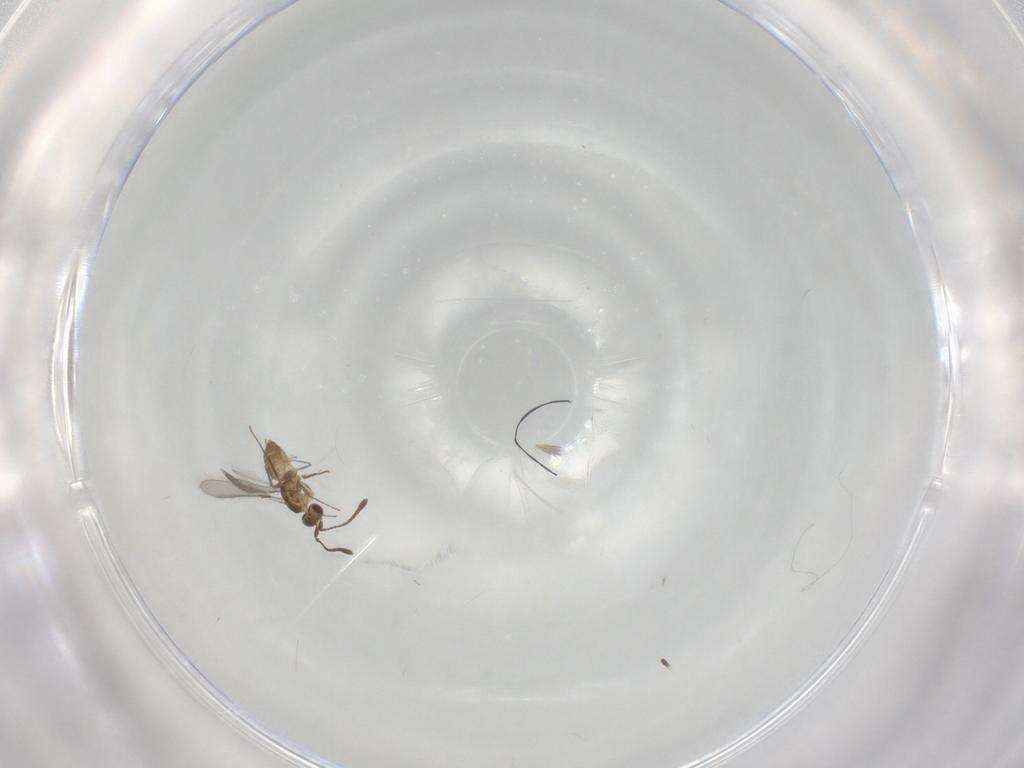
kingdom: Animalia
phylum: Arthropoda
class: Insecta
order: Hymenoptera
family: Mymaridae
